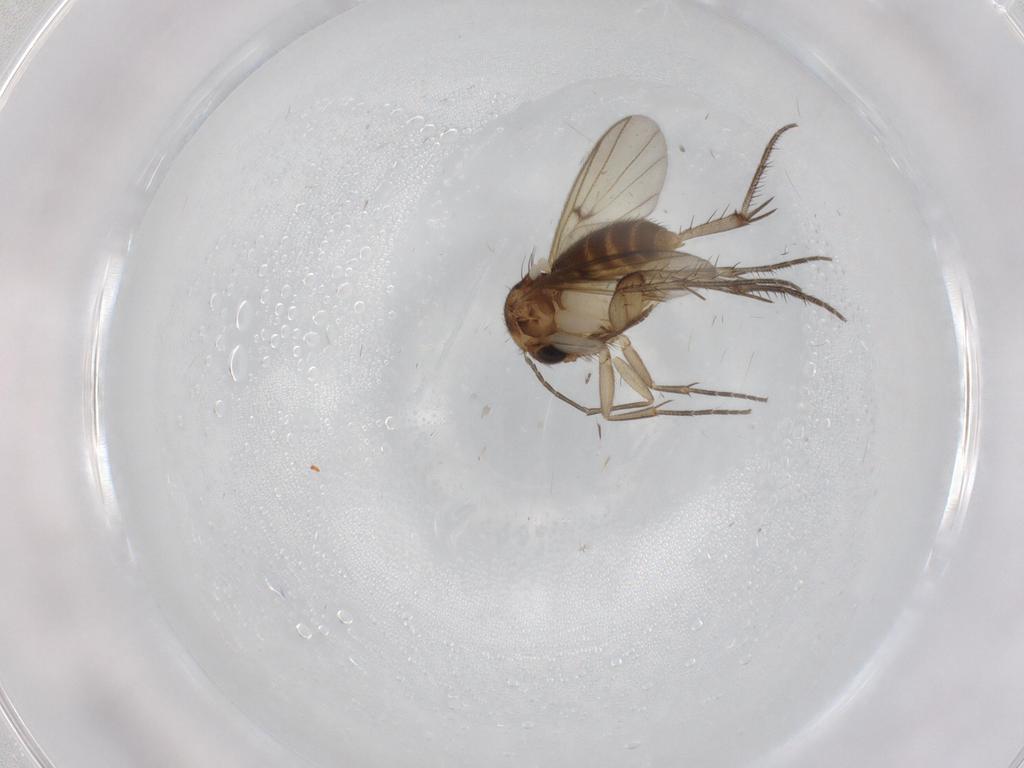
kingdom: Animalia
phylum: Arthropoda
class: Insecta
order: Diptera
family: Mycetophilidae
